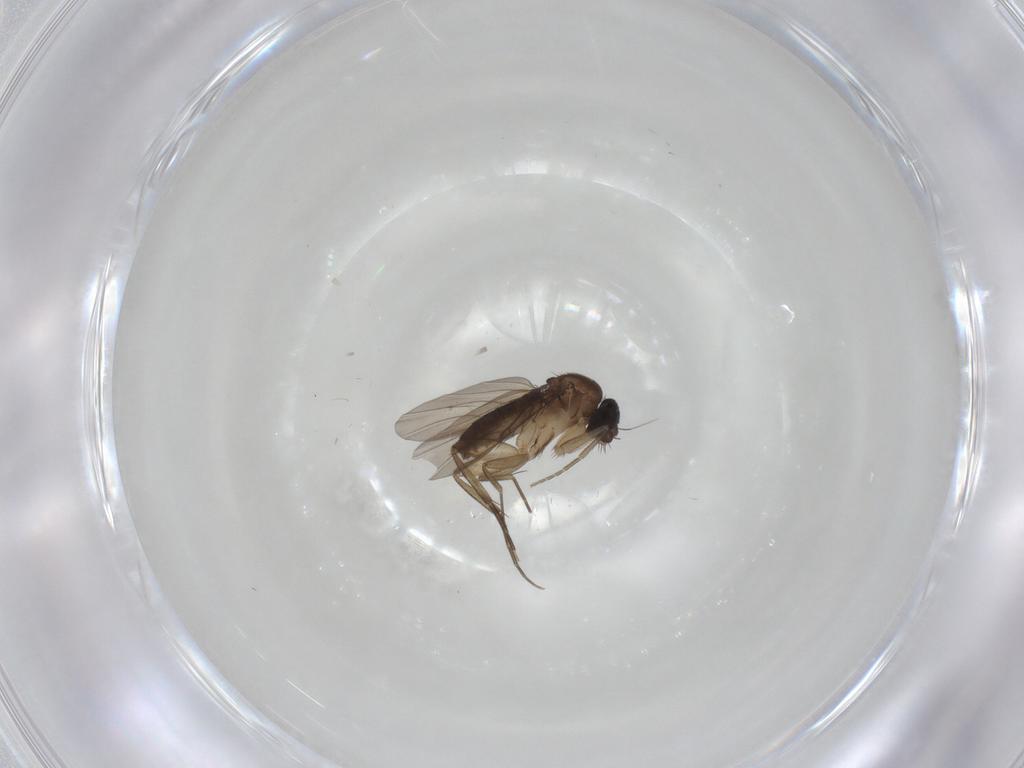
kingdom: Animalia
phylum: Arthropoda
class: Insecta
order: Diptera
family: Phoridae
